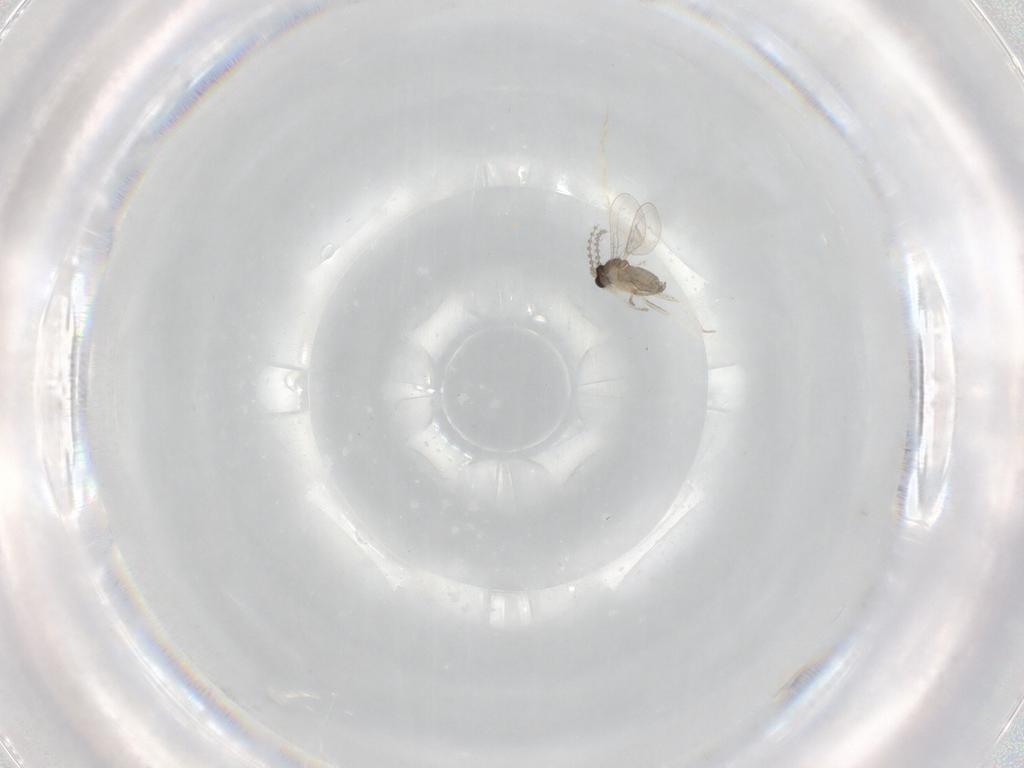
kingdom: Animalia
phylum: Arthropoda
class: Insecta
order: Diptera
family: Cecidomyiidae
